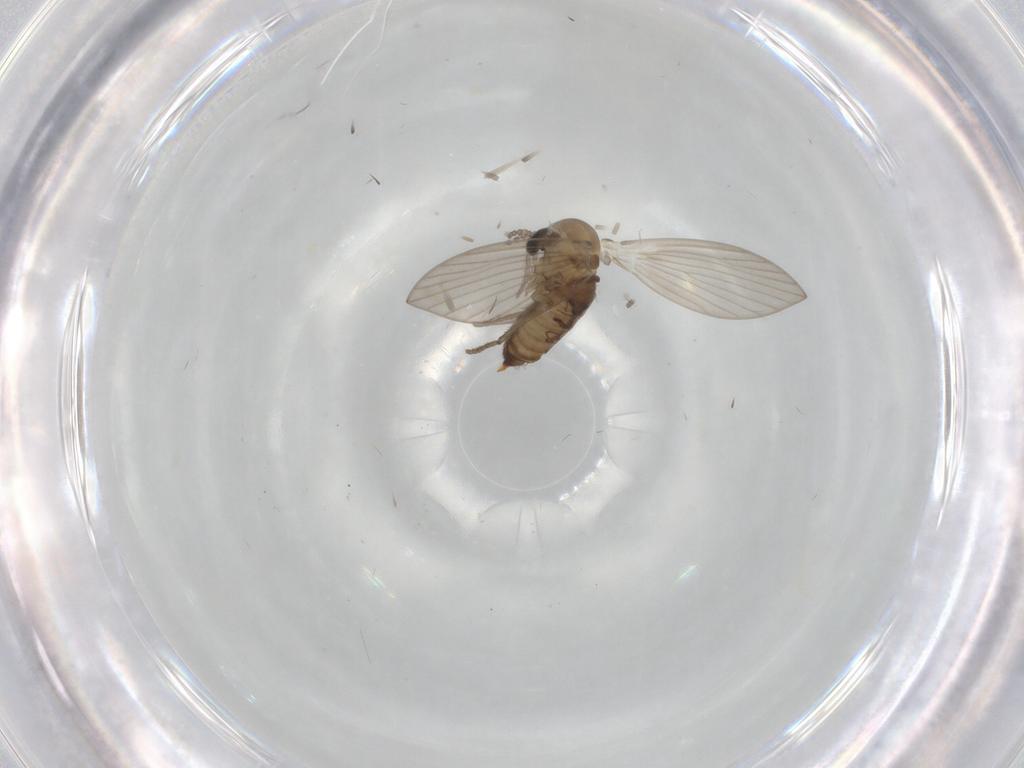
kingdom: Animalia
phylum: Arthropoda
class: Insecta
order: Diptera
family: Psychodidae
